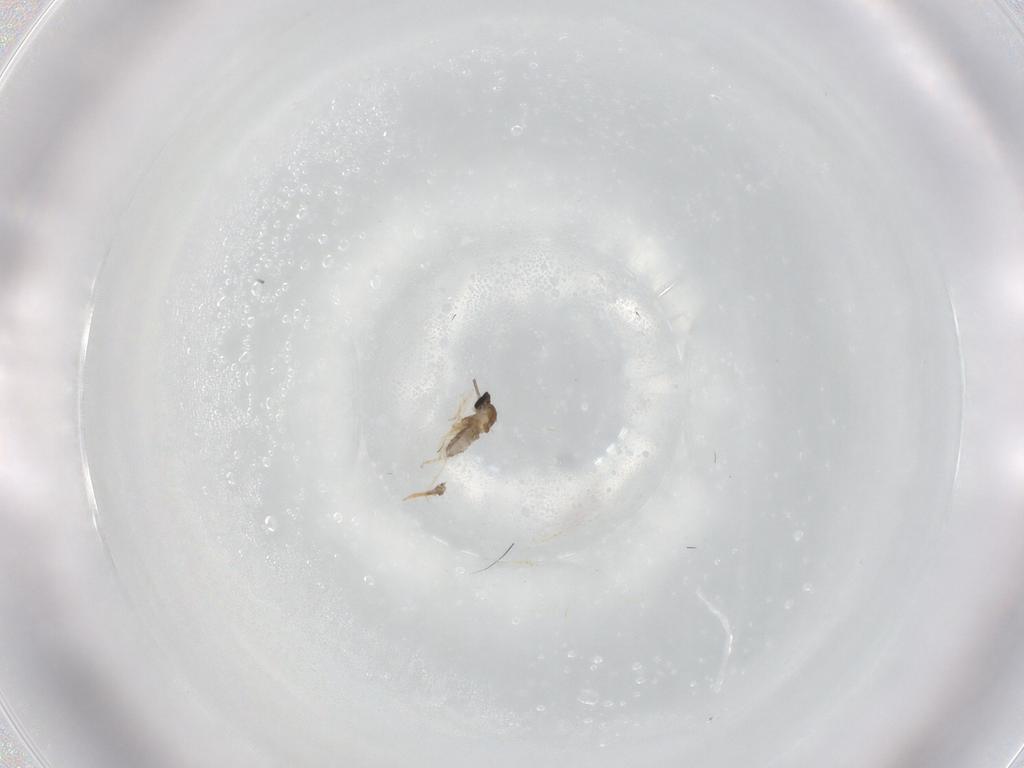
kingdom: Animalia
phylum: Arthropoda
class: Insecta
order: Diptera
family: Cecidomyiidae
